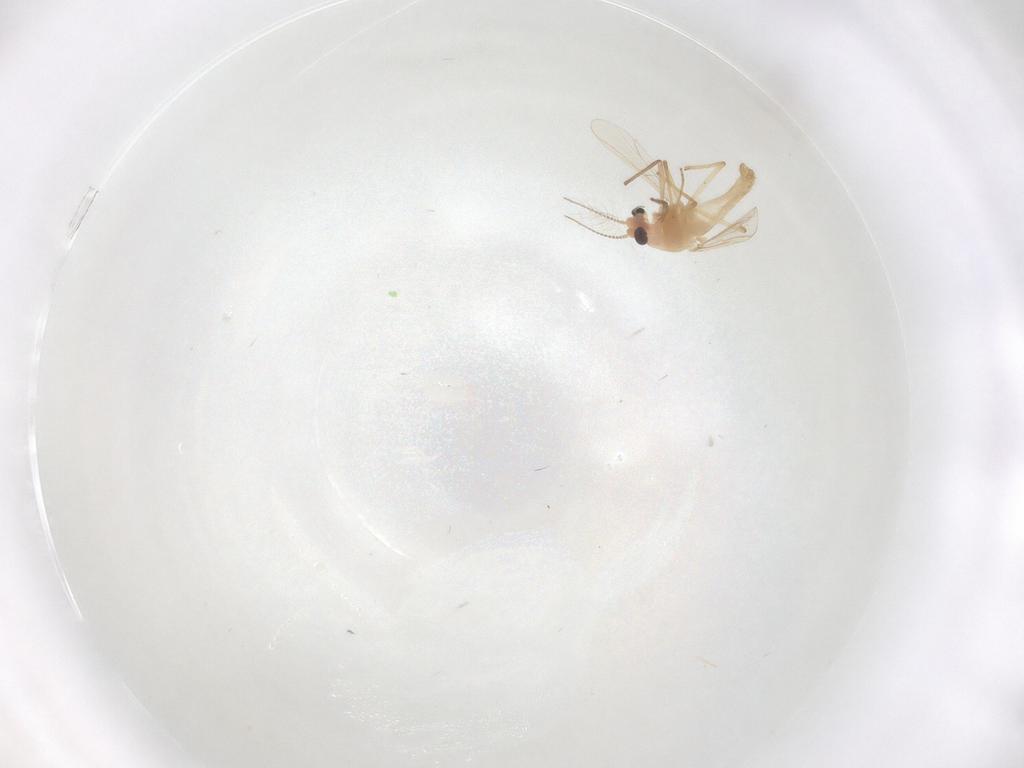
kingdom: Animalia
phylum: Arthropoda
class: Insecta
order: Diptera
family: Chironomidae
